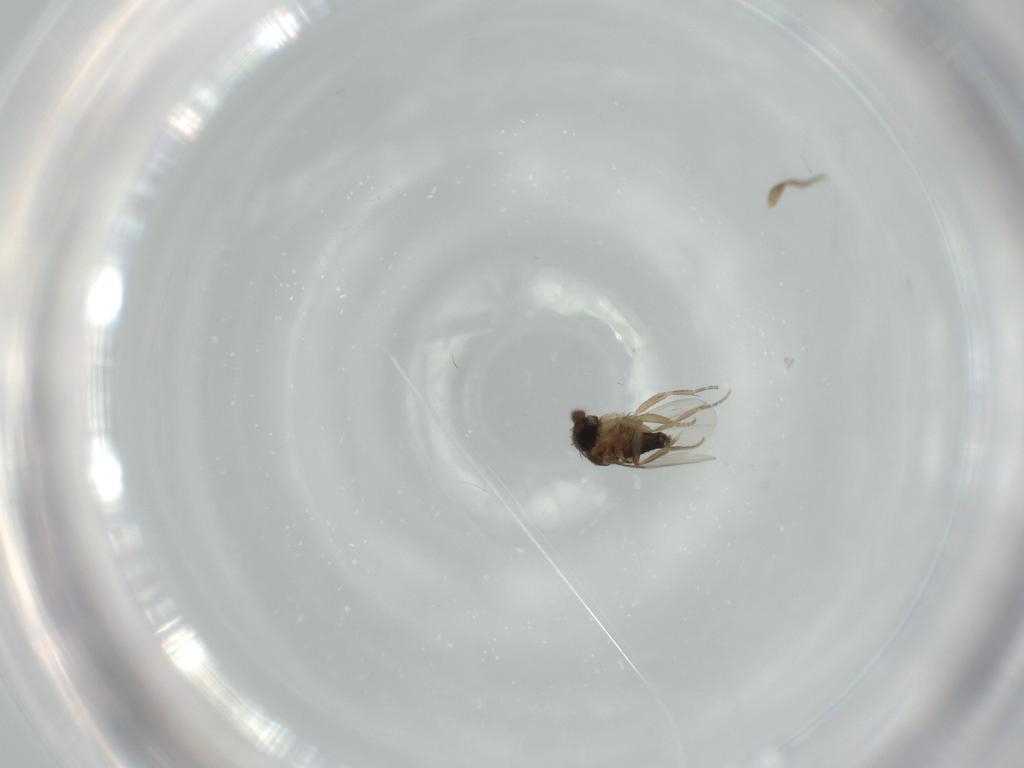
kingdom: Animalia
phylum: Arthropoda
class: Insecta
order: Diptera
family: Phoridae
